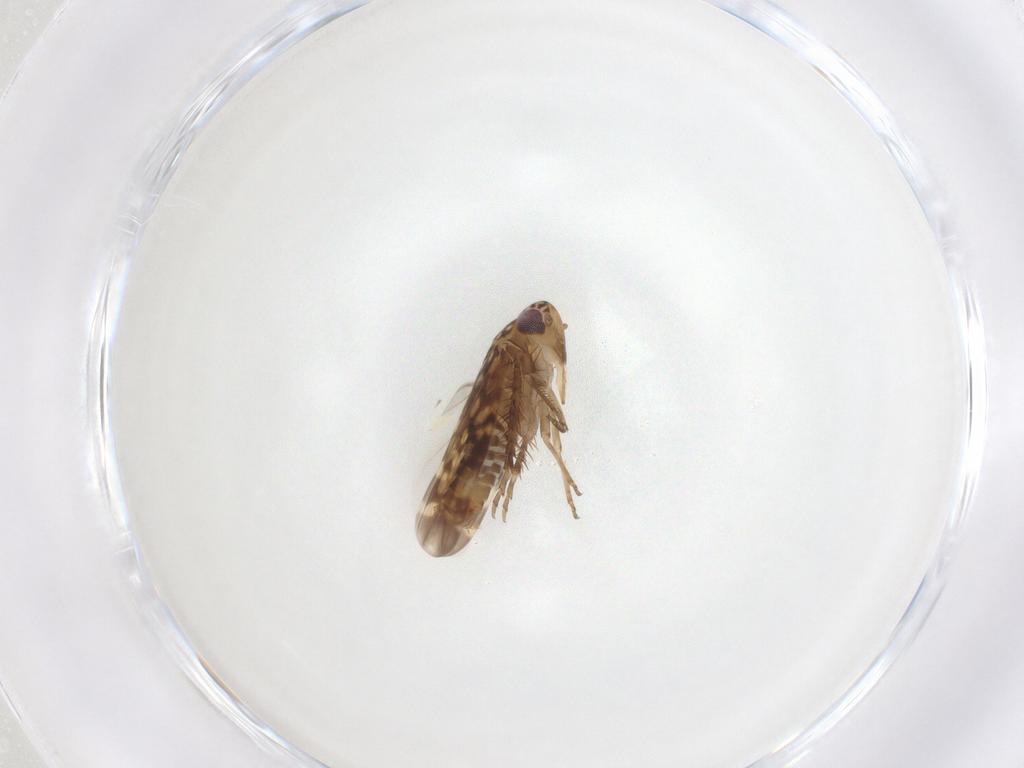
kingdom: Animalia
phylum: Arthropoda
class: Insecta
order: Hemiptera
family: Cicadellidae
